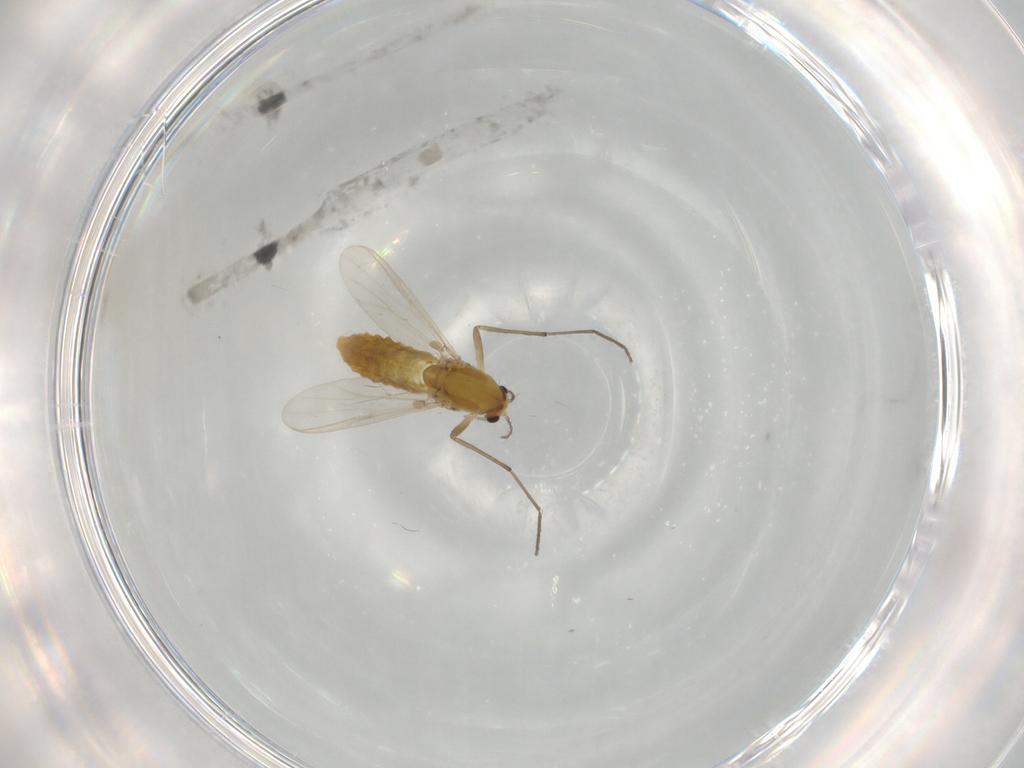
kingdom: Animalia
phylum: Arthropoda
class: Insecta
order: Diptera
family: Chironomidae
